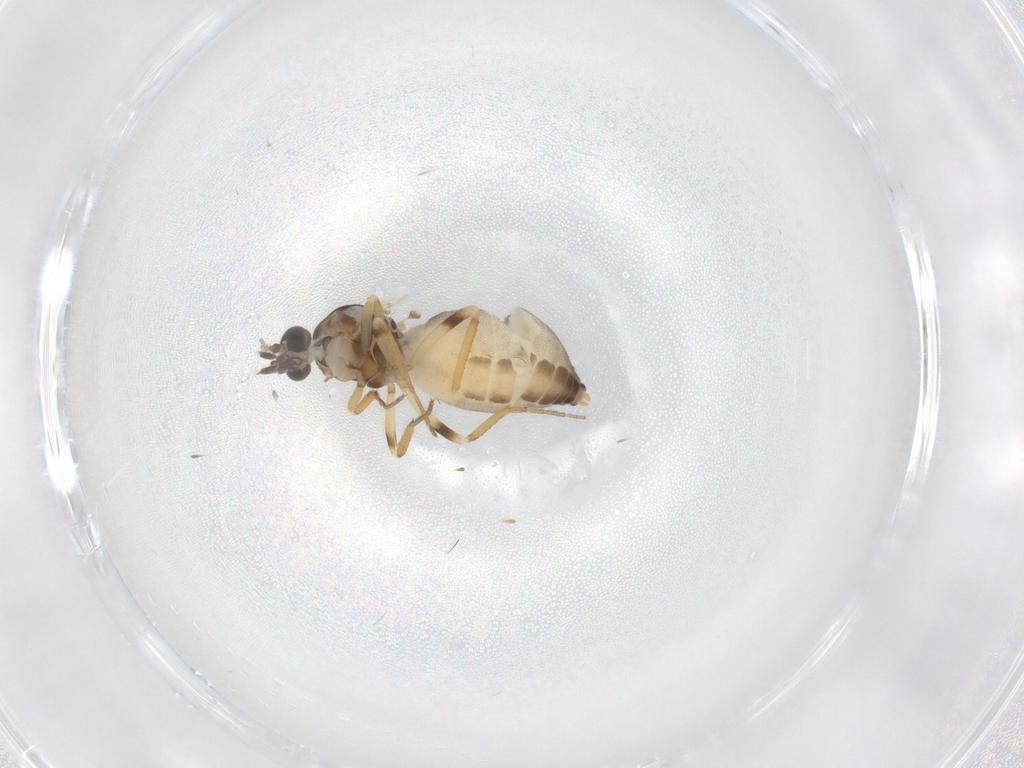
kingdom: Animalia
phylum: Arthropoda
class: Insecta
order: Diptera
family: Ceratopogonidae
